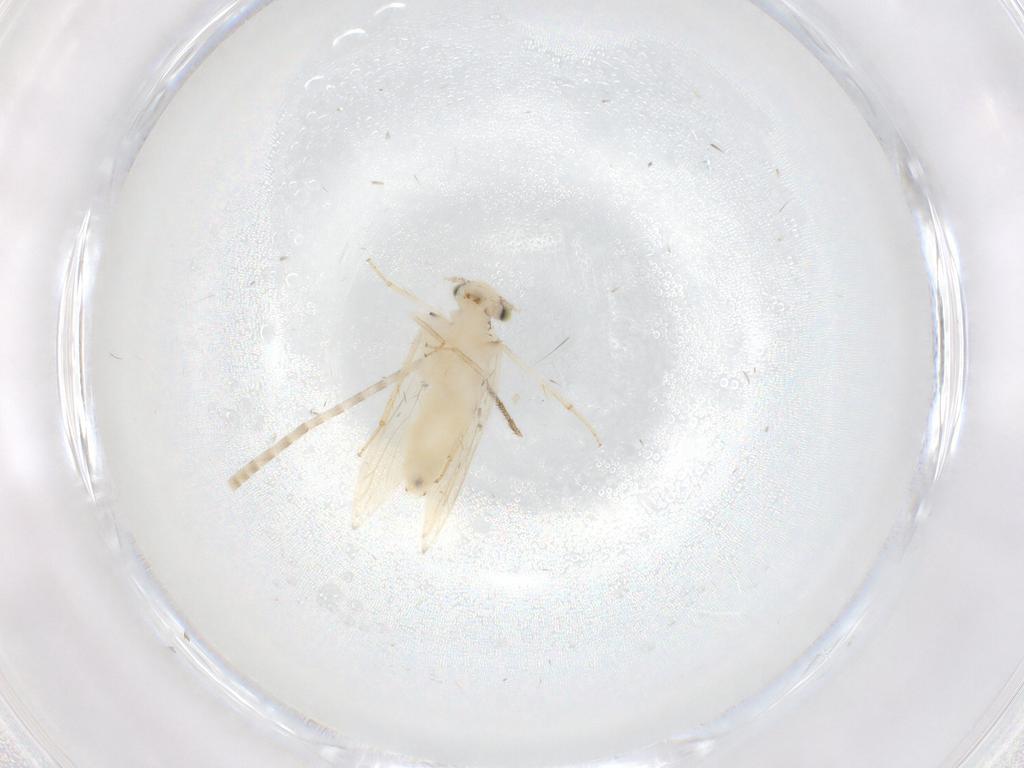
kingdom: Animalia
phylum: Arthropoda
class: Insecta
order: Psocodea
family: Lepidopsocidae
